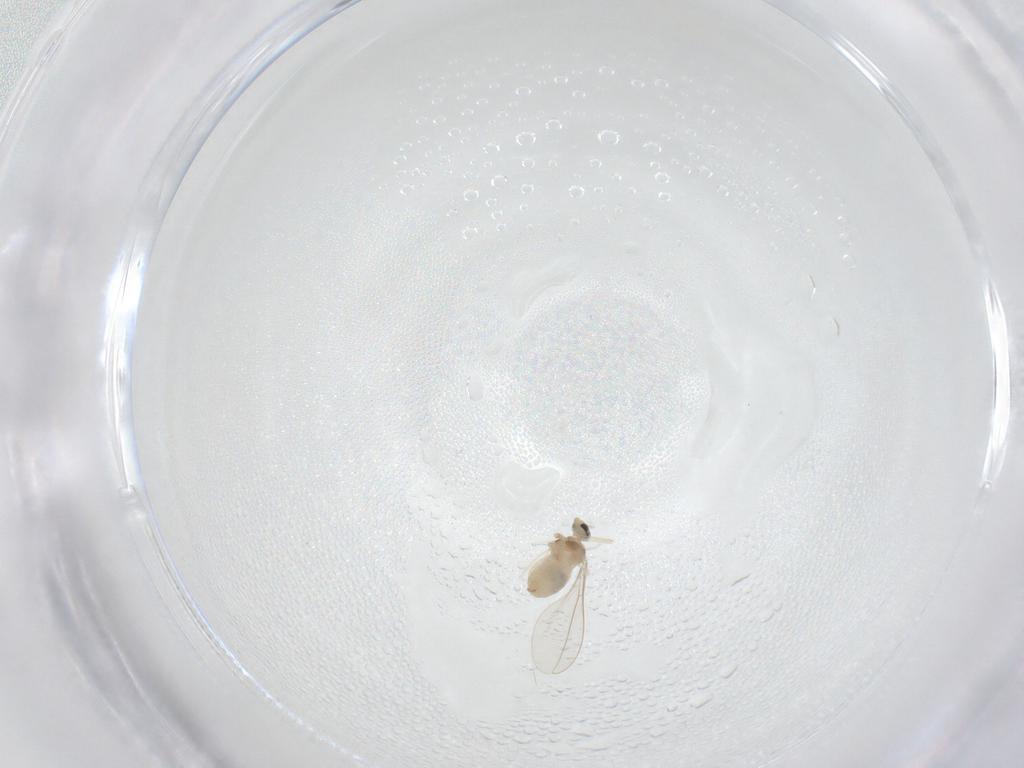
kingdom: Animalia
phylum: Arthropoda
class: Insecta
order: Diptera
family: Cecidomyiidae
